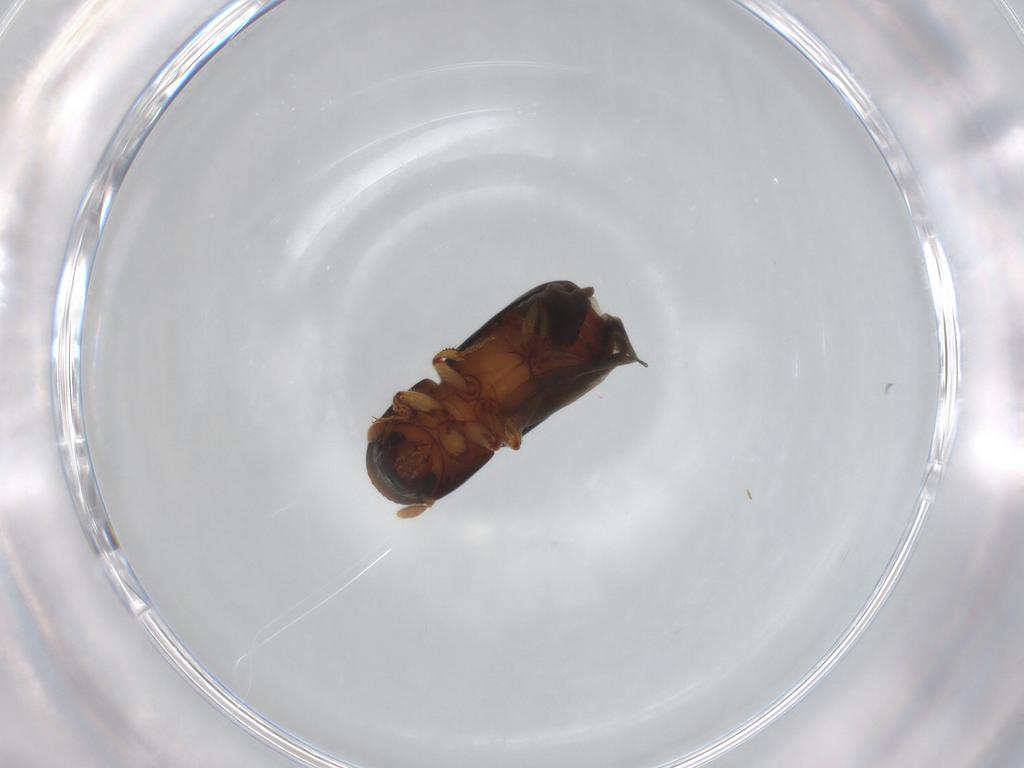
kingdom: Animalia
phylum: Arthropoda
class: Insecta
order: Coleoptera
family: Curculionidae
